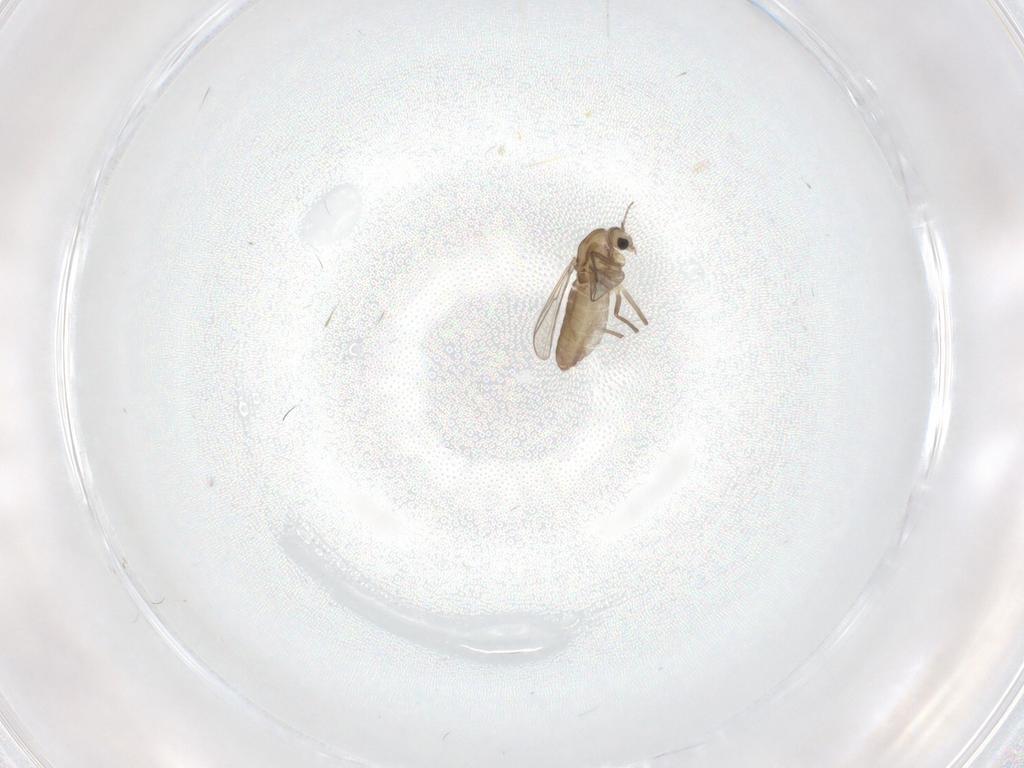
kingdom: Animalia
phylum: Arthropoda
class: Insecta
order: Diptera
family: Chironomidae
